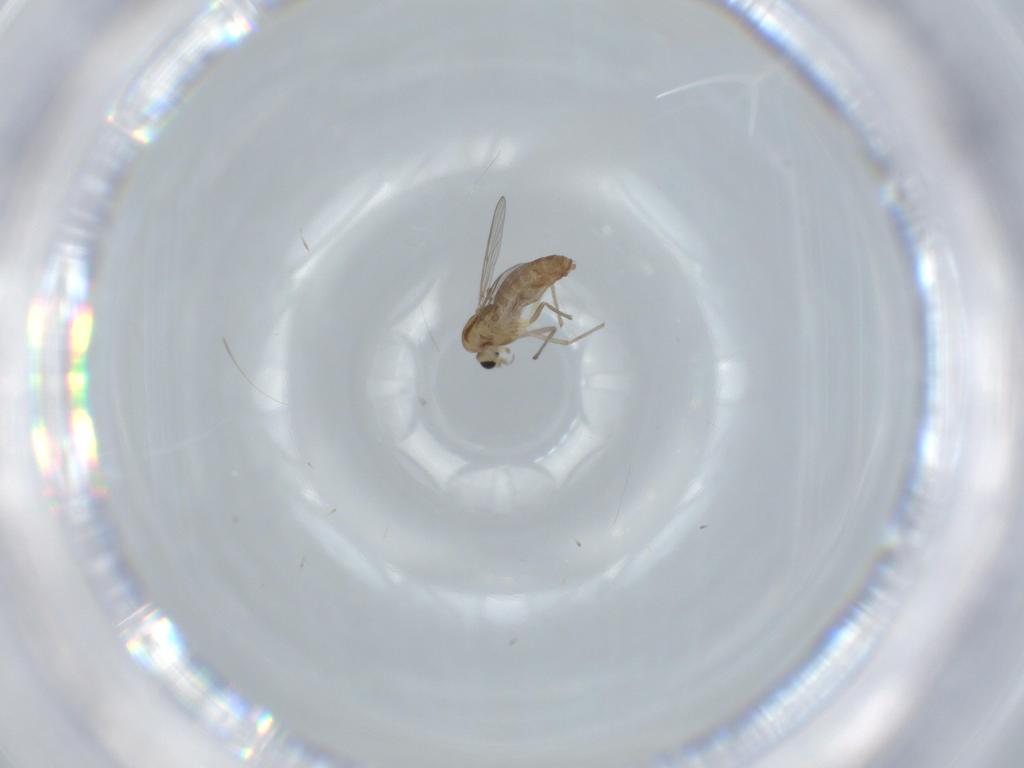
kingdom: Animalia
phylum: Arthropoda
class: Insecta
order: Diptera
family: Chironomidae
